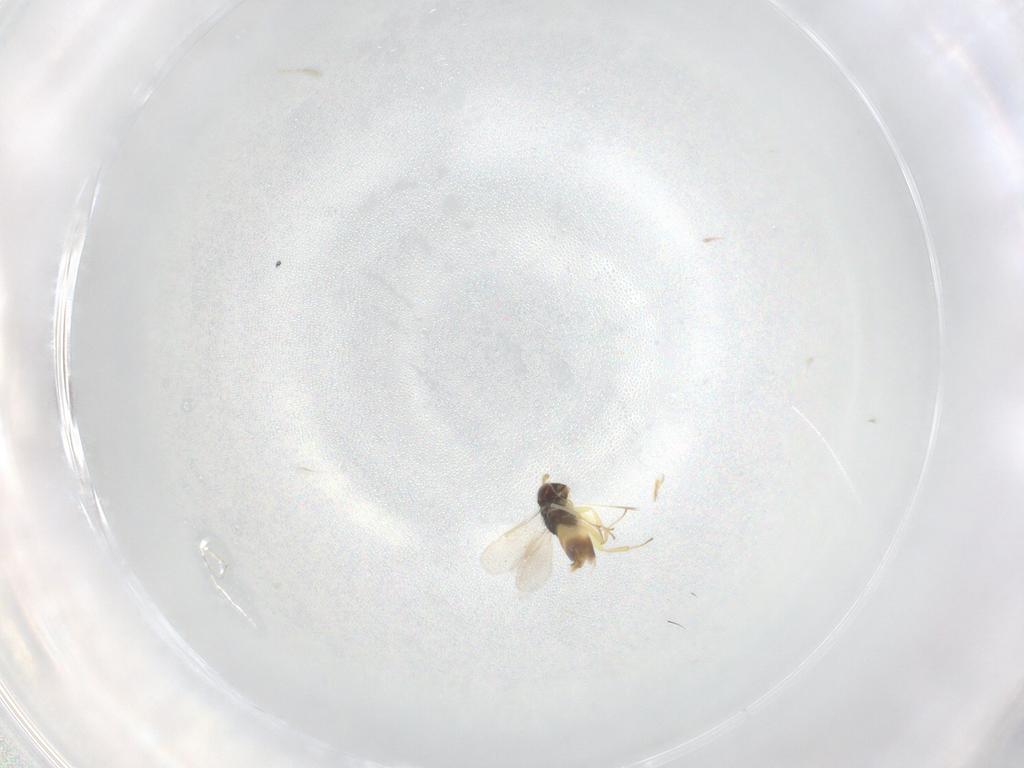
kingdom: Animalia
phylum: Arthropoda
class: Insecta
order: Hymenoptera
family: Aphelinidae
